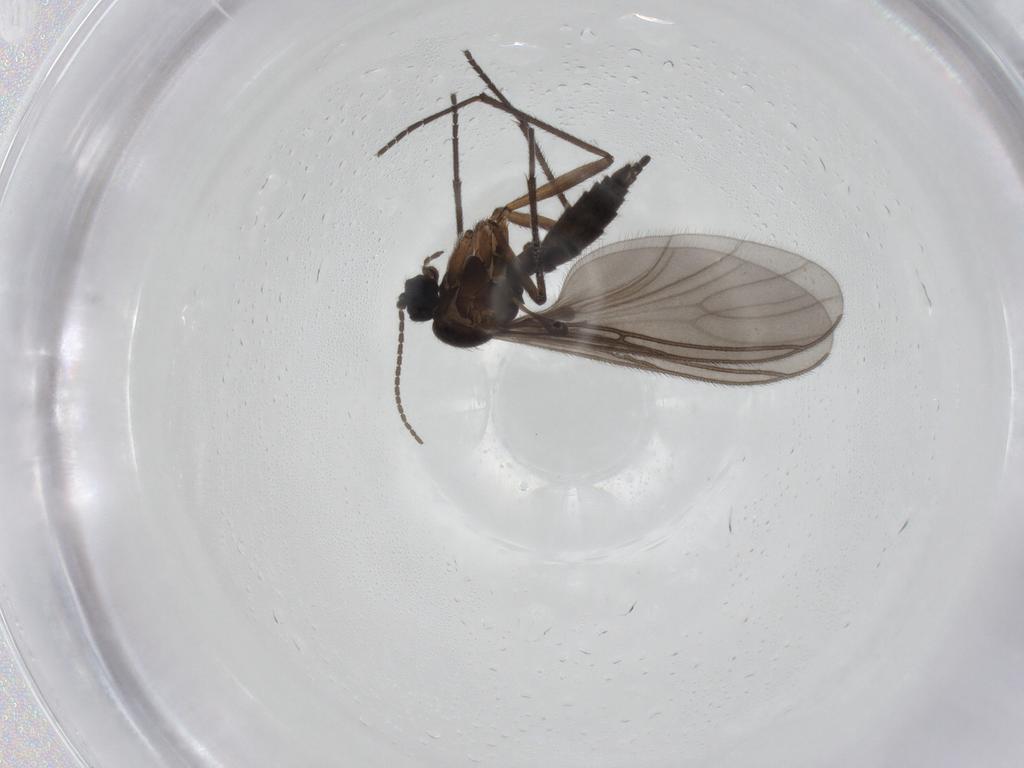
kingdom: Animalia
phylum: Arthropoda
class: Insecta
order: Diptera
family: Sciaridae
